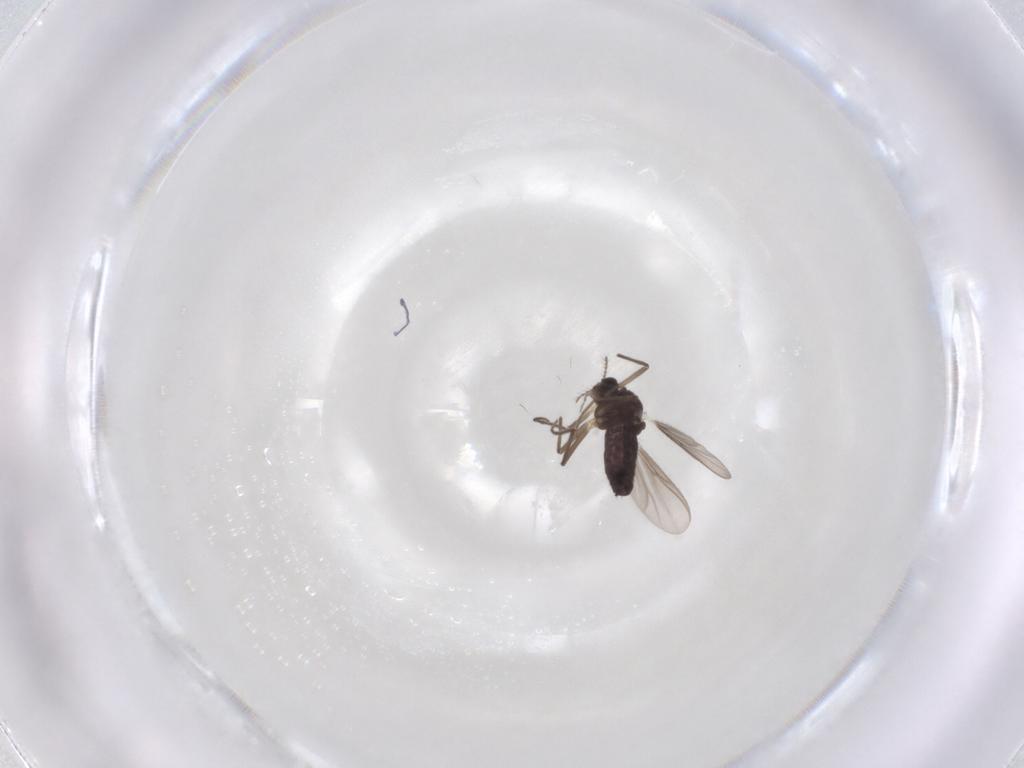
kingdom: Animalia
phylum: Arthropoda
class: Insecta
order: Diptera
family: Chironomidae
